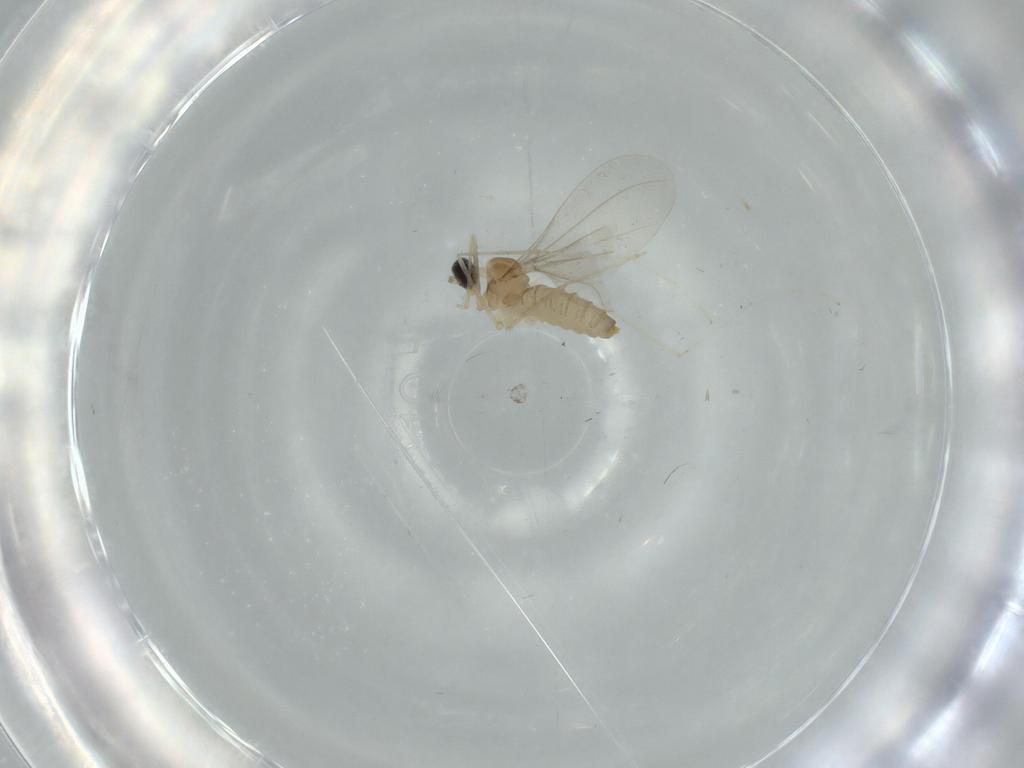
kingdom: Animalia
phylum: Arthropoda
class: Insecta
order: Diptera
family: Cecidomyiidae
